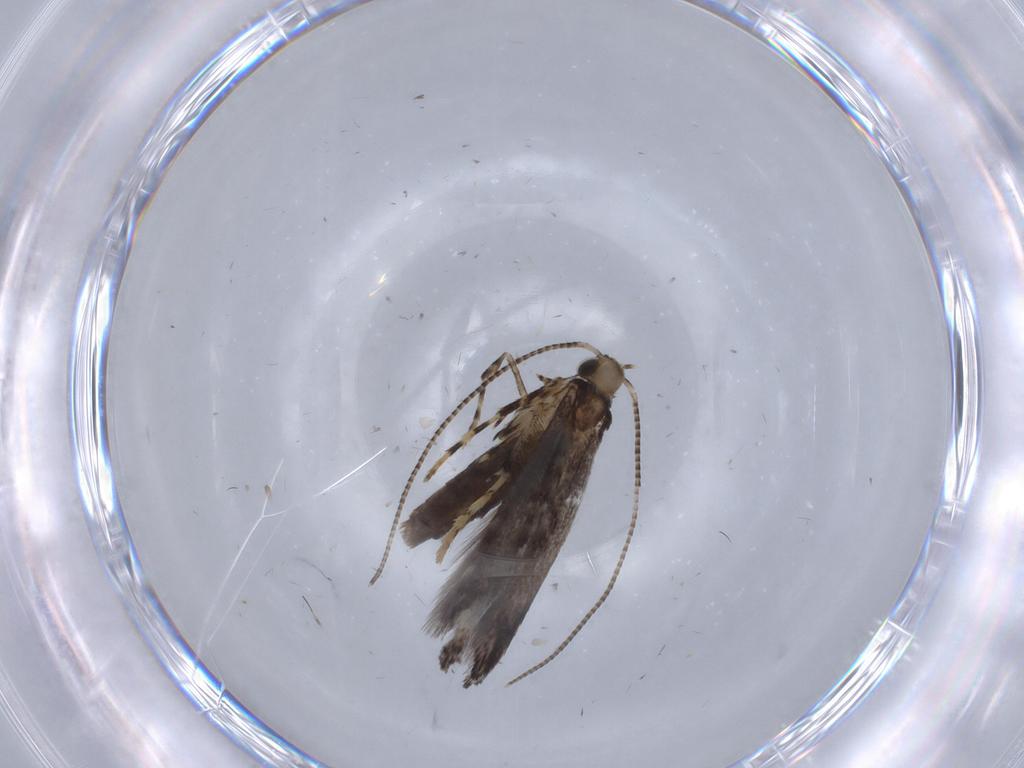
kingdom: Animalia
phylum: Arthropoda
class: Insecta
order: Lepidoptera
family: Gracillariidae
